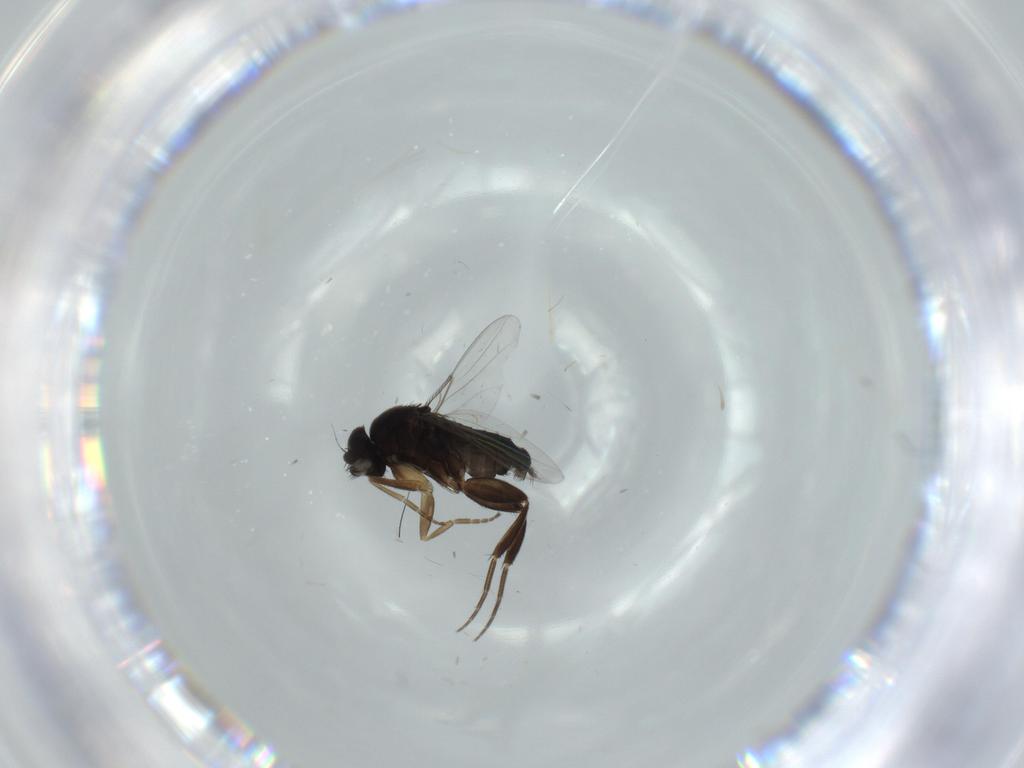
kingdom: Animalia
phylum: Arthropoda
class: Insecta
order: Diptera
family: Phoridae
